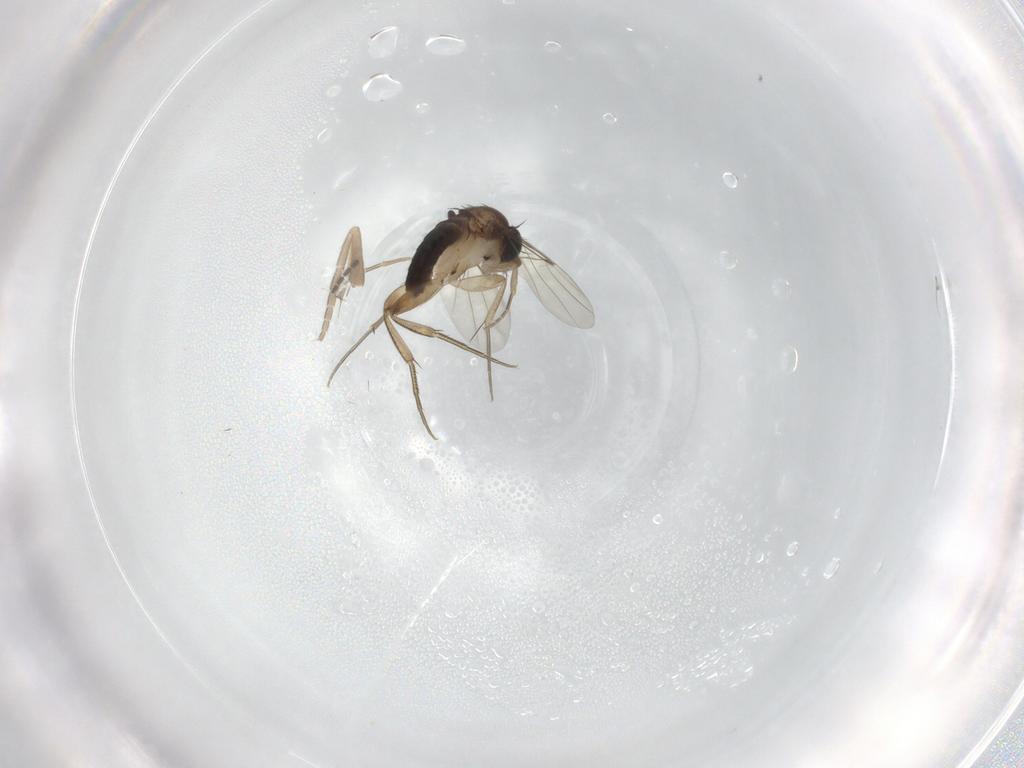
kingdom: Animalia
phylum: Arthropoda
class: Insecta
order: Diptera
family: Phoridae
